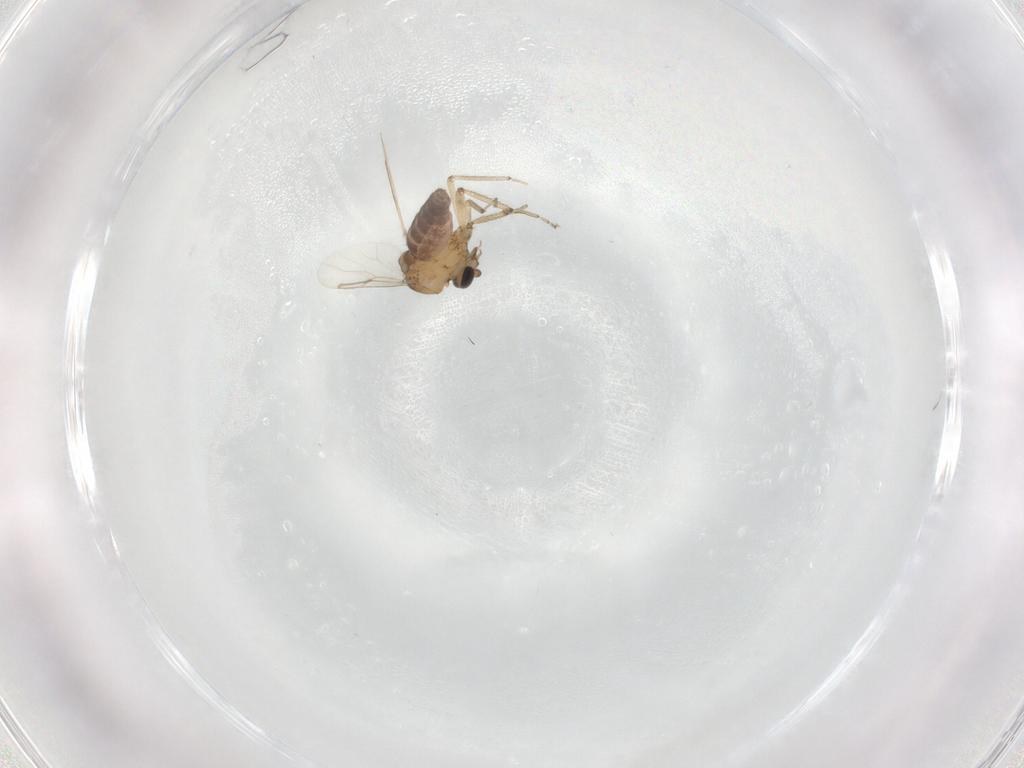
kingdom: Animalia
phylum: Arthropoda
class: Insecta
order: Diptera
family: Ceratopogonidae
